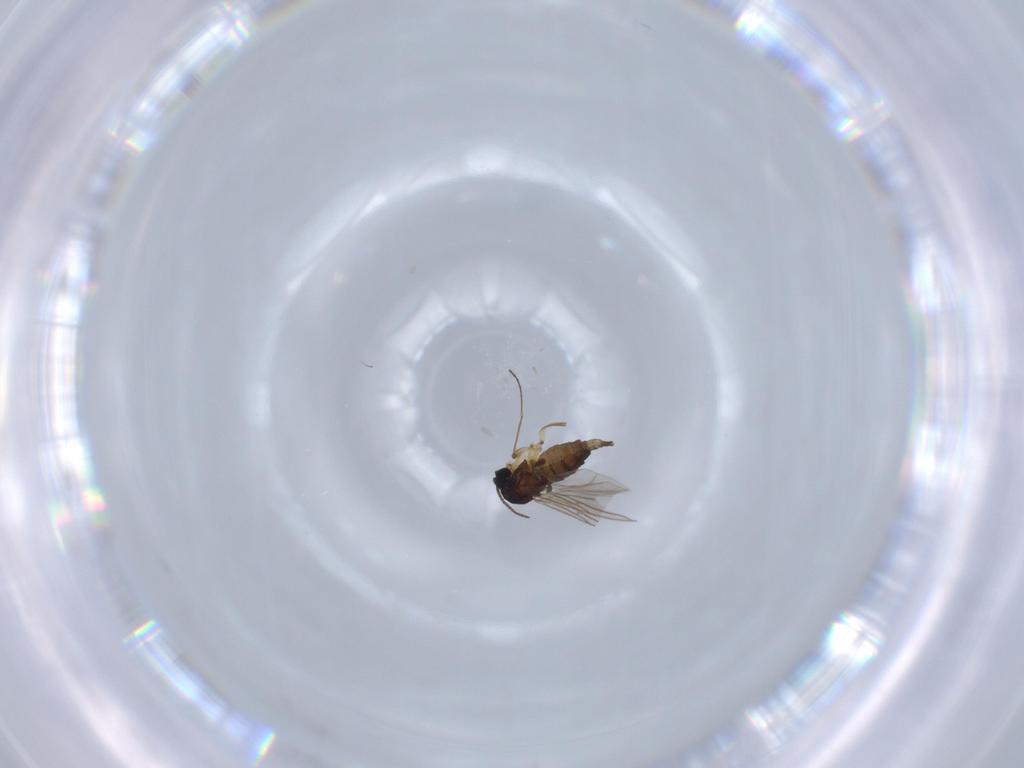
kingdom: Animalia
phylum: Arthropoda
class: Insecta
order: Diptera
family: Sciaridae
